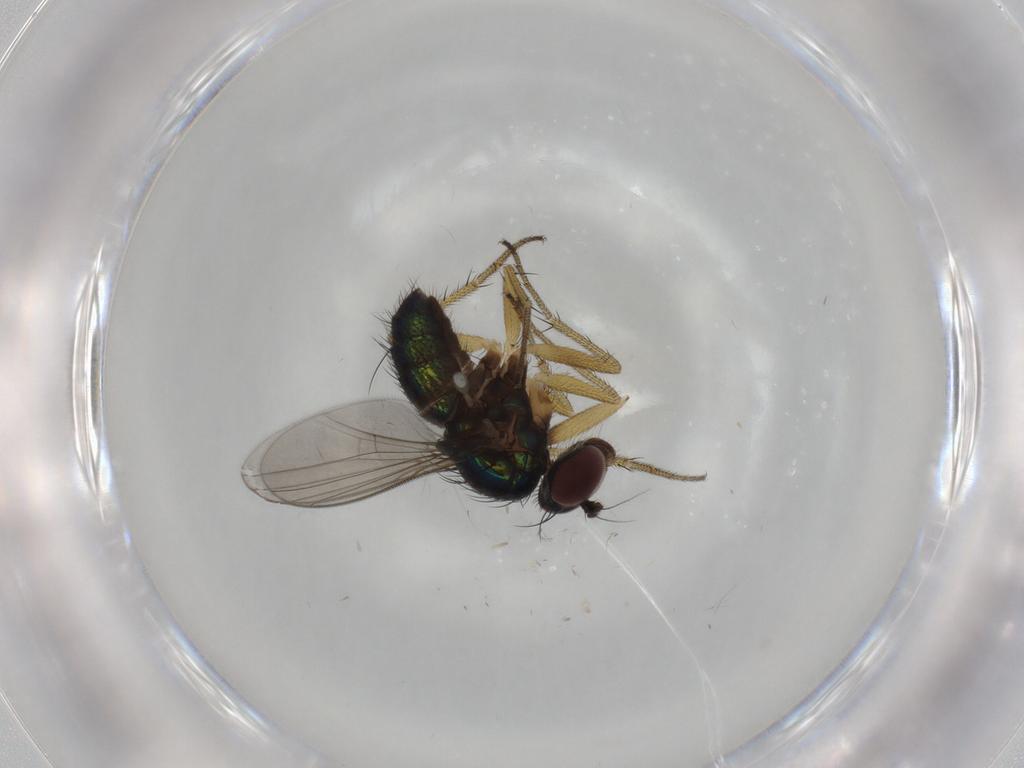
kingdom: Animalia
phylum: Arthropoda
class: Insecta
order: Diptera
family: Dolichopodidae
